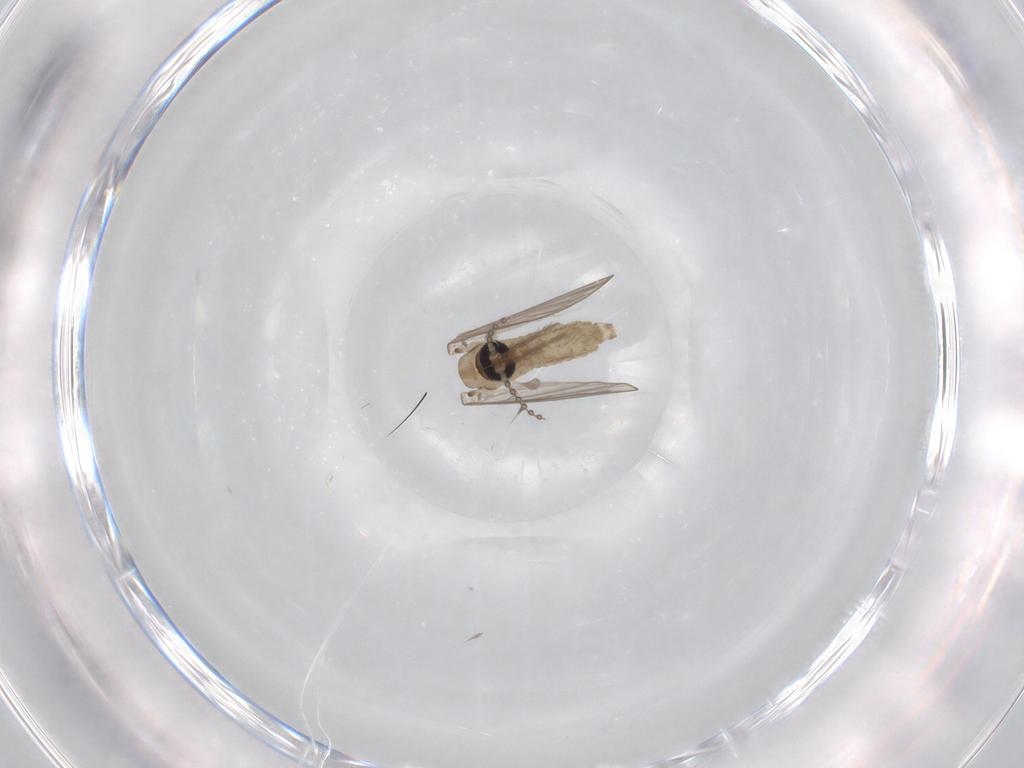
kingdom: Animalia
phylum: Arthropoda
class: Insecta
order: Diptera
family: Psychodidae
